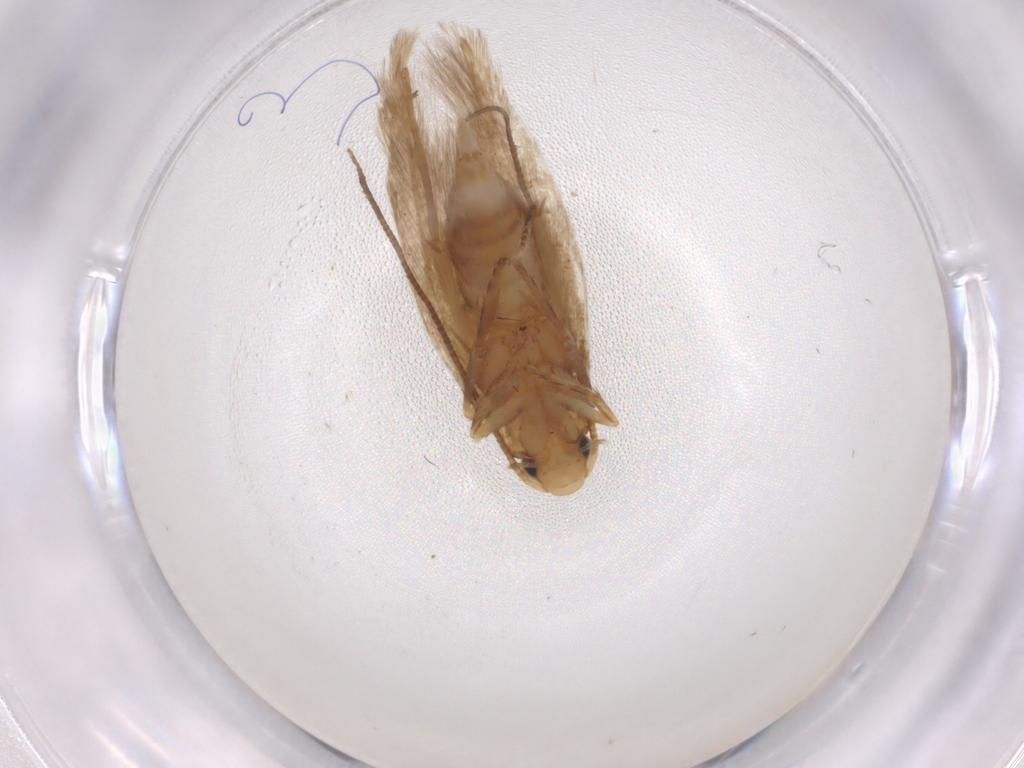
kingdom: Animalia
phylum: Arthropoda
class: Insecta
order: Lepidoptera
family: Tineidae
